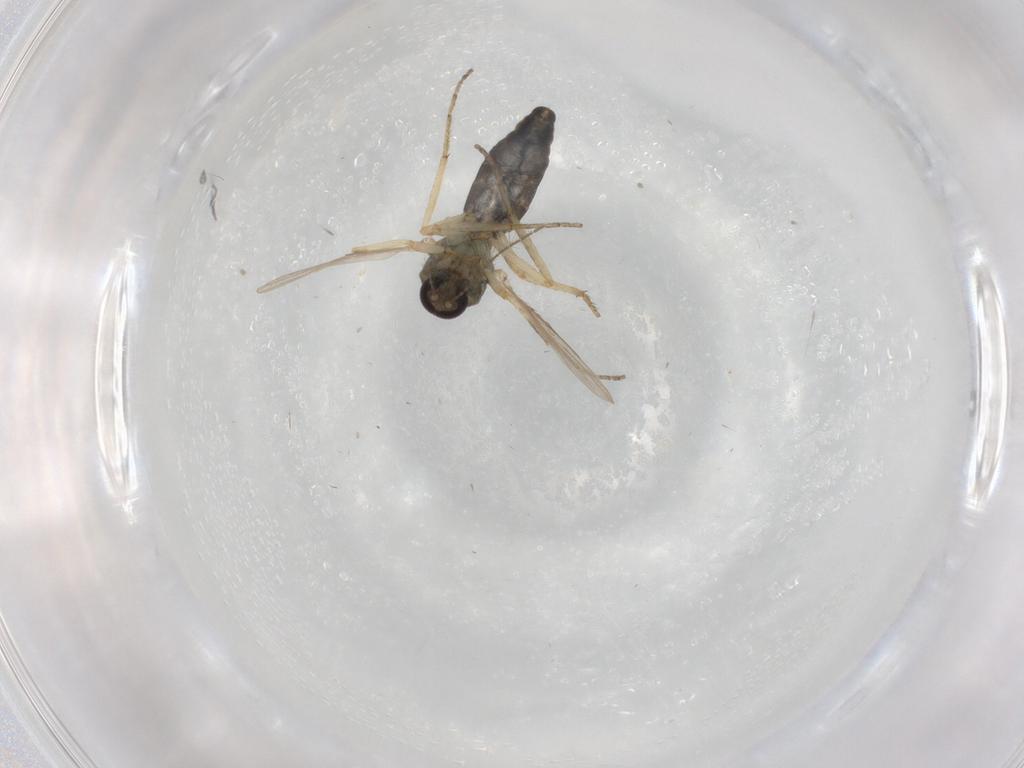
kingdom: Animalia
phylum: Arthropoda
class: Insecta
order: Diptera
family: Ceratopogonidae
